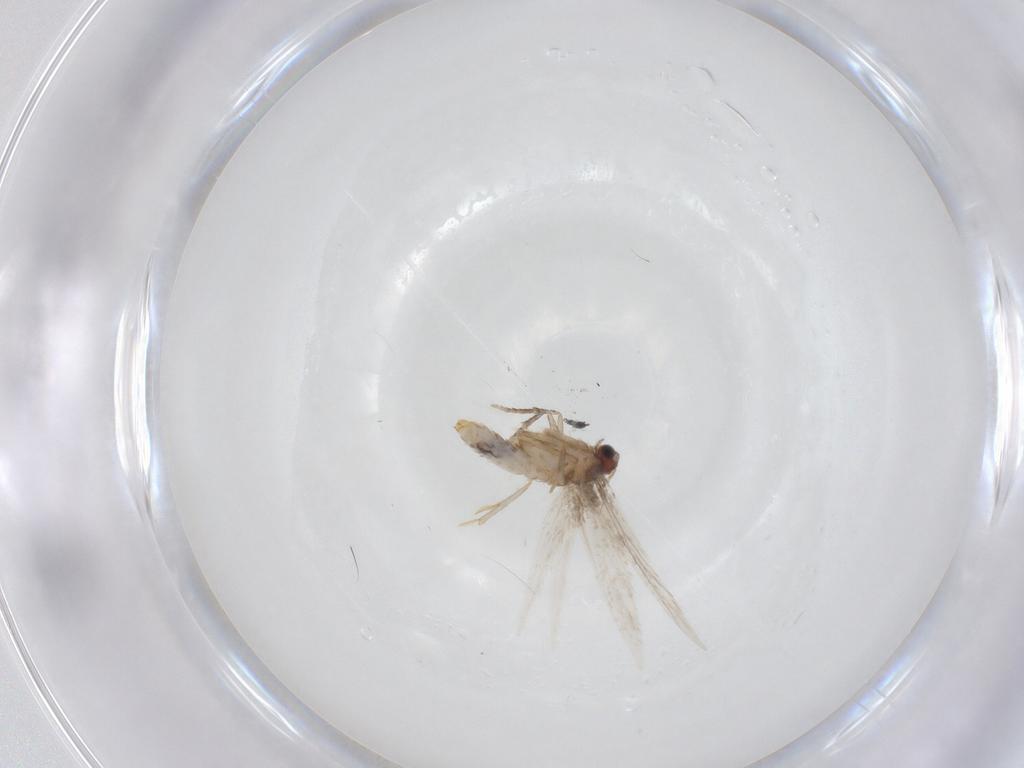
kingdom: Animalia
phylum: Arthropoda
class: Insecta
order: Lepidoptera
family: Nepticulidae
